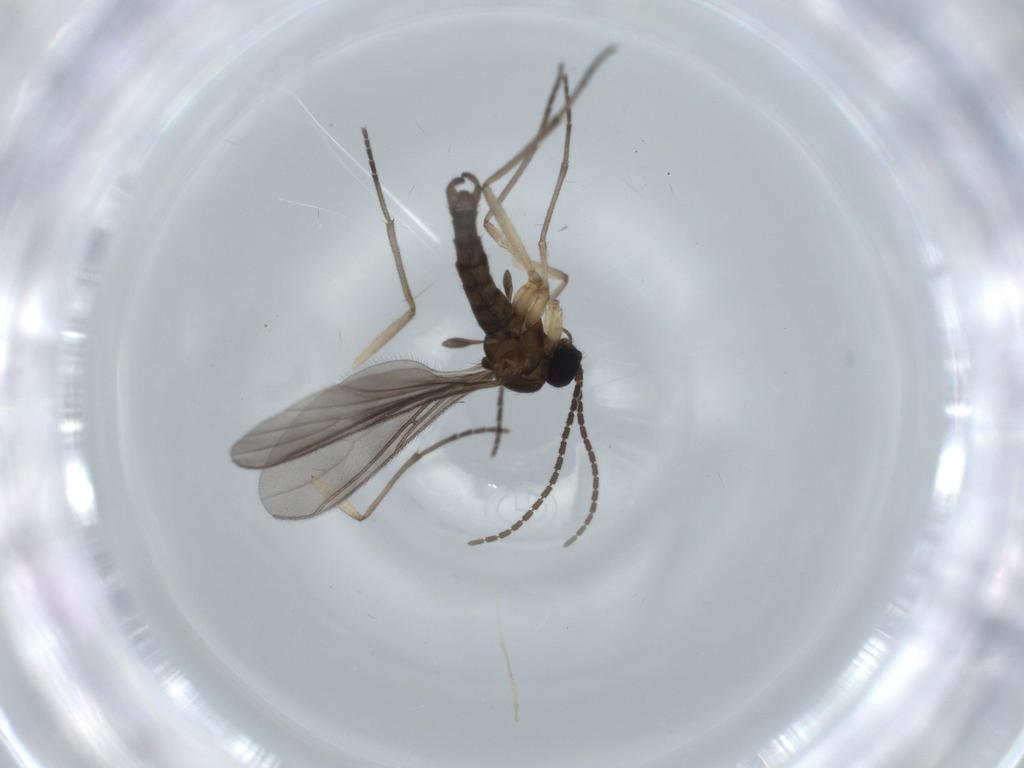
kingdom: Animalia
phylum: Arthropoda
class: Insecta
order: Diptera
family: Sciaridae
